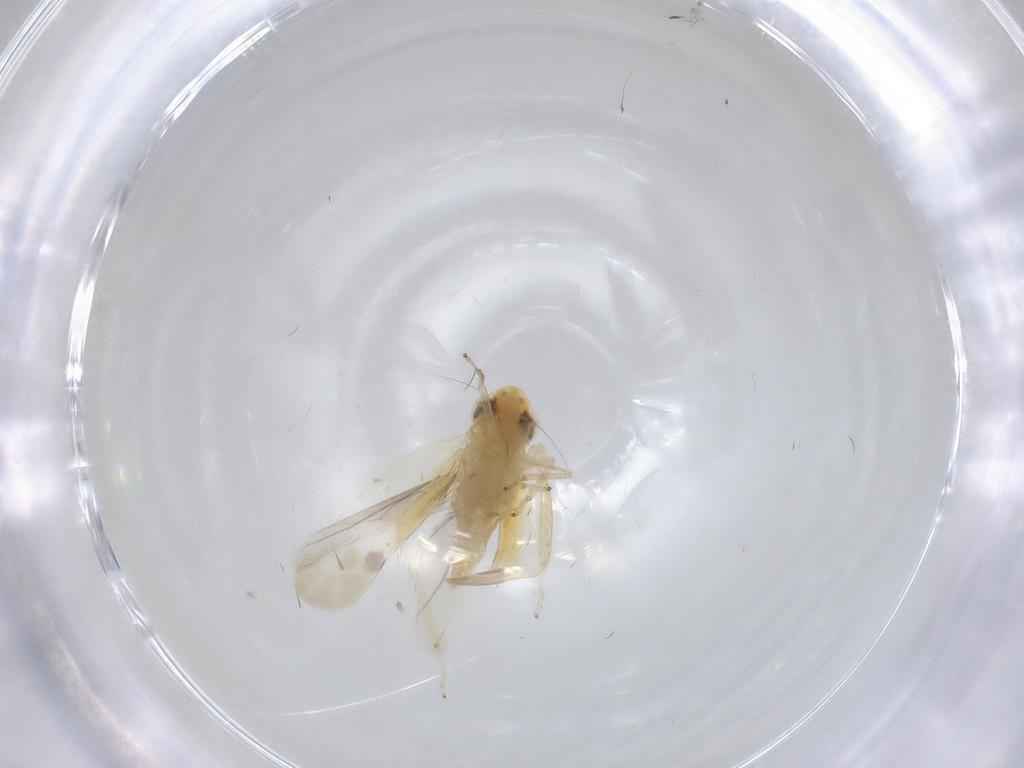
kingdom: Animalia
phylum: Arthropoda
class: Insecta
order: Hemiptera
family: Cicadellidae
